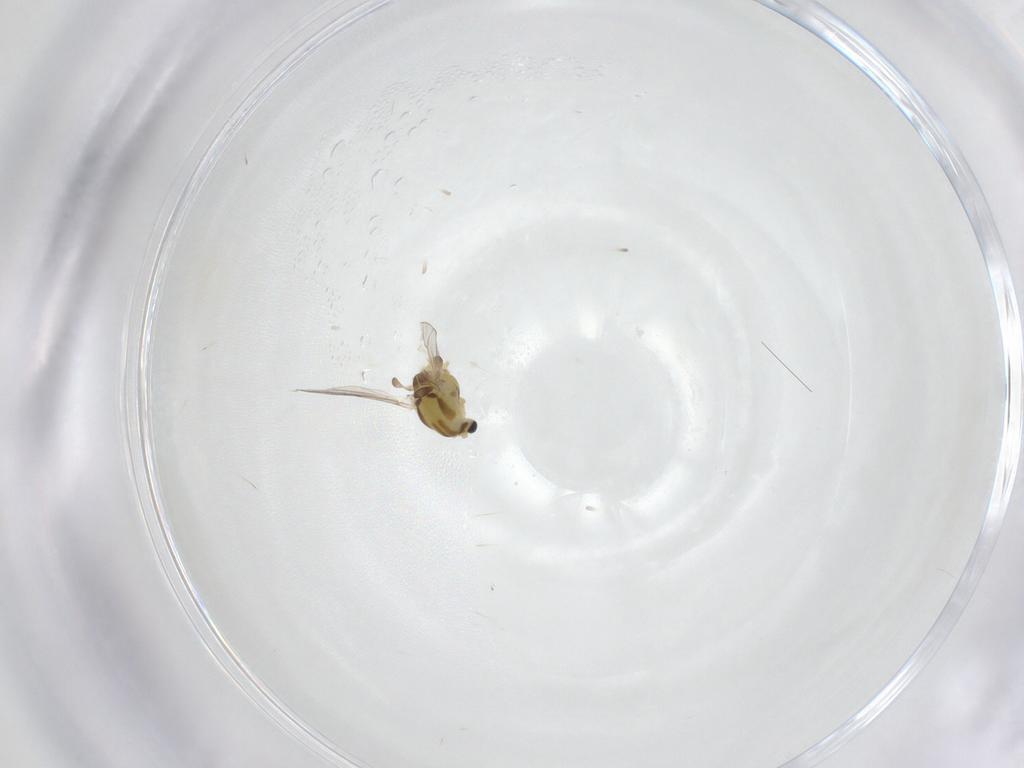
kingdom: Animalia
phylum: Arthropoda
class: Insecta
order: Diptera
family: Chironomidae
